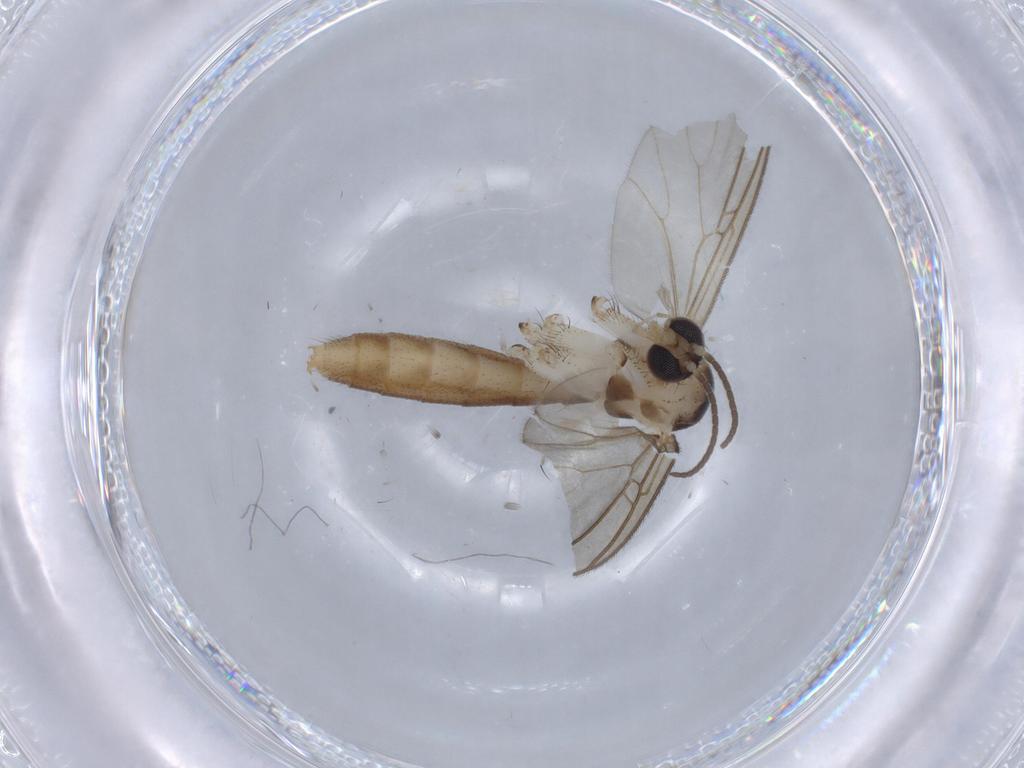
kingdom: Animalia
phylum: Arthropoda
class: Insecta
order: Diptera
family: Mycetophilidae
